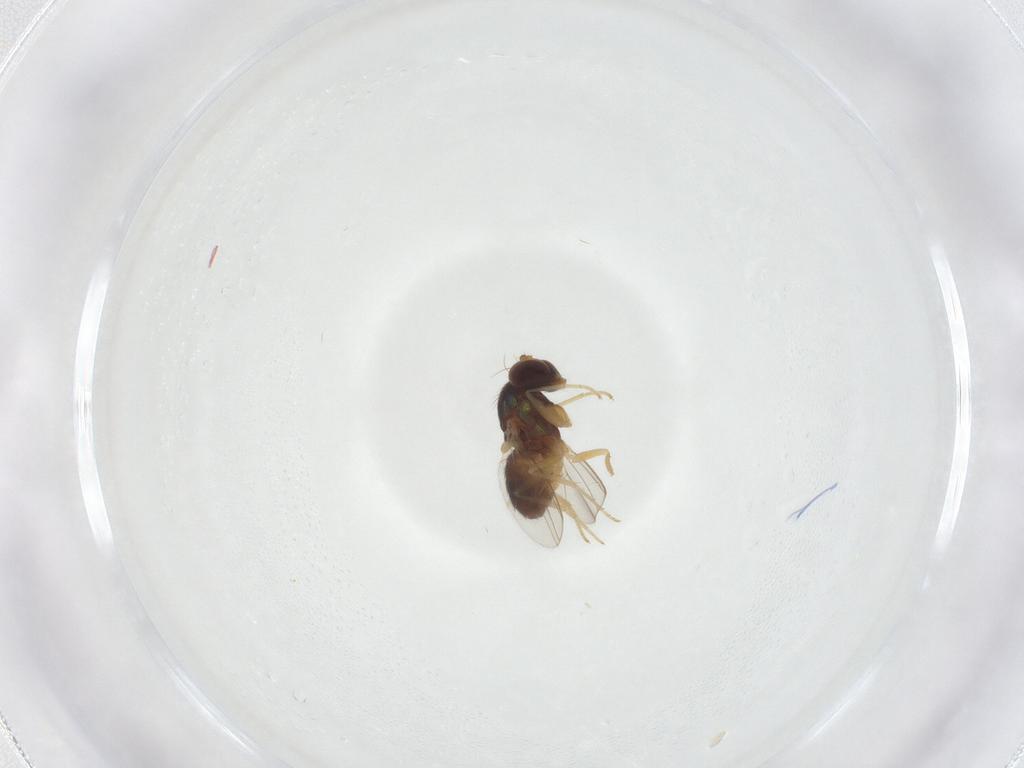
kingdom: Animalia
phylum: Arthropoda
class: Insecta
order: Diptera
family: Dolichopodidae
